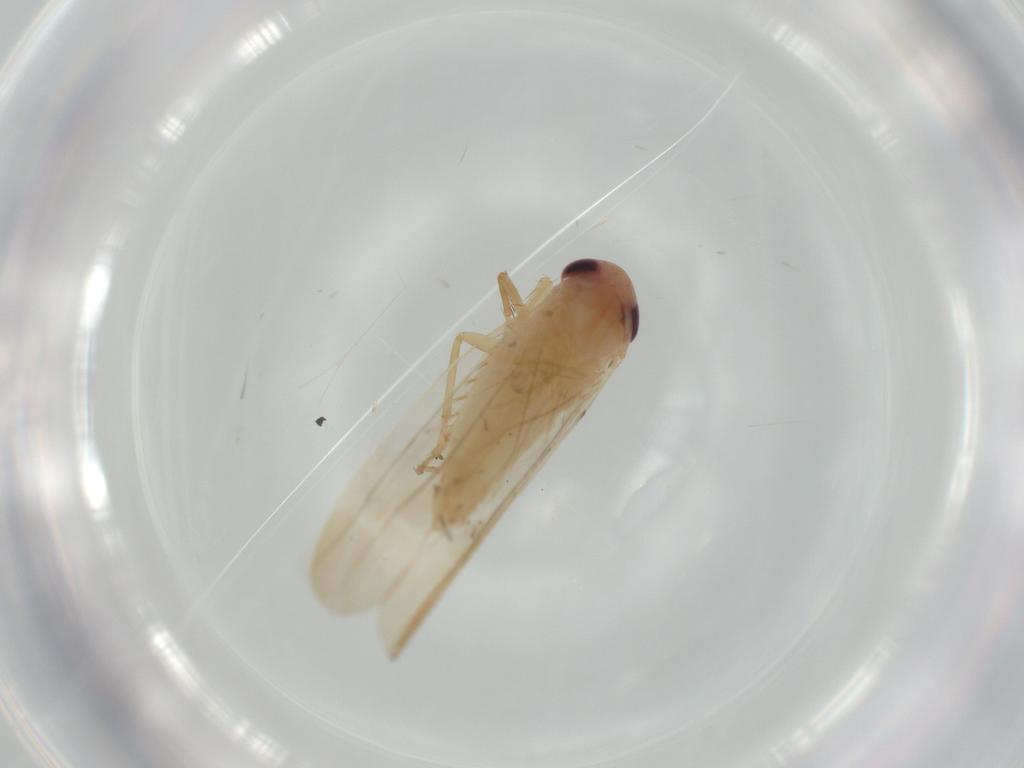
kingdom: Animalia
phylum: Arthropoda
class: Insecta
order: Hemiptera
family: Cicadellidae
